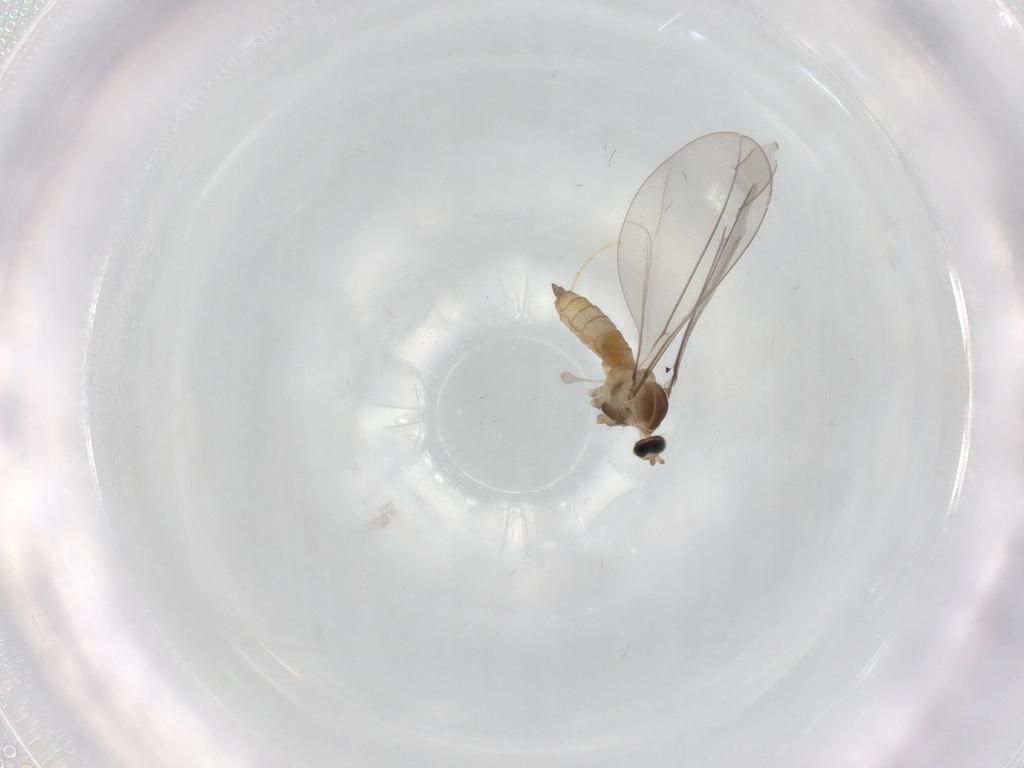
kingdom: Animalia
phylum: Arthropoda
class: Insecta
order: Diptera
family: Cecidomyiidae
